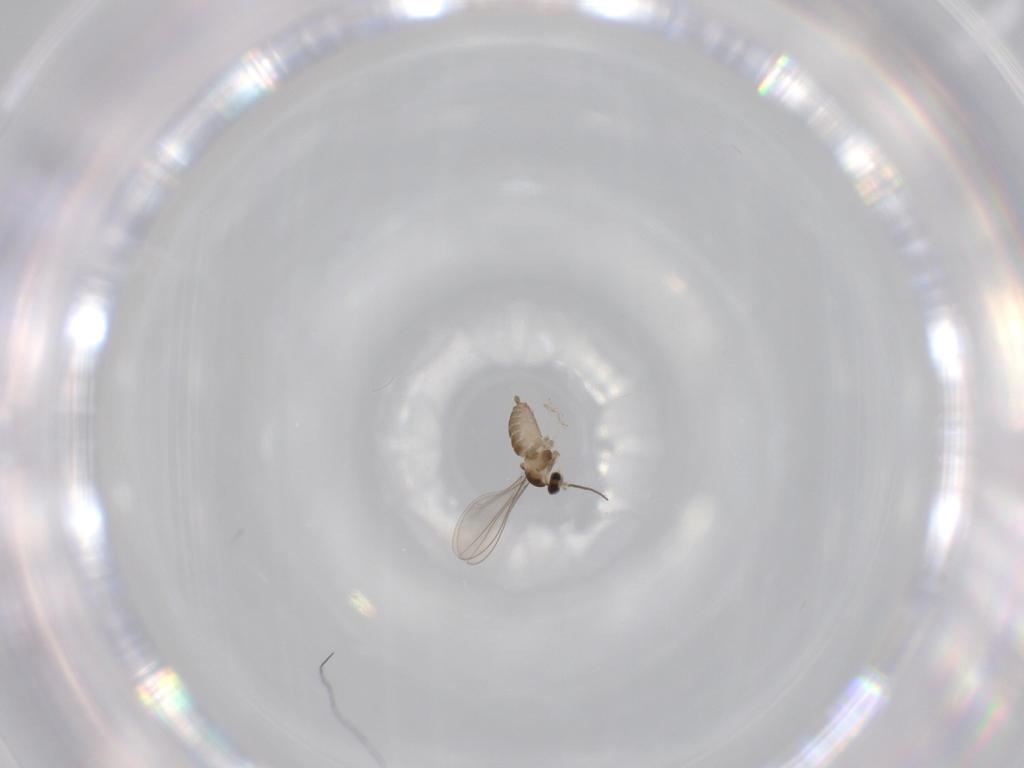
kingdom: Animalia
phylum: Arthropoda
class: Insecta
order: Diptera
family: Cecidomyiidae
